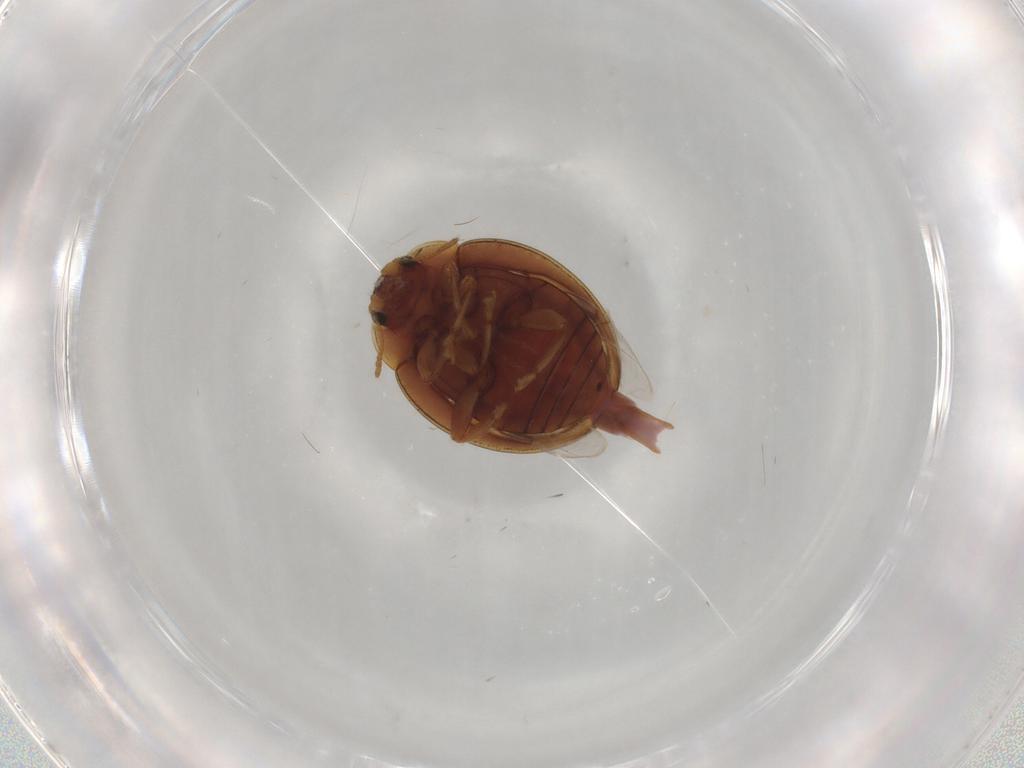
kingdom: Animalia
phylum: Arthropoda
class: Insecta
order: Coleoptera
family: Coccinellidae
